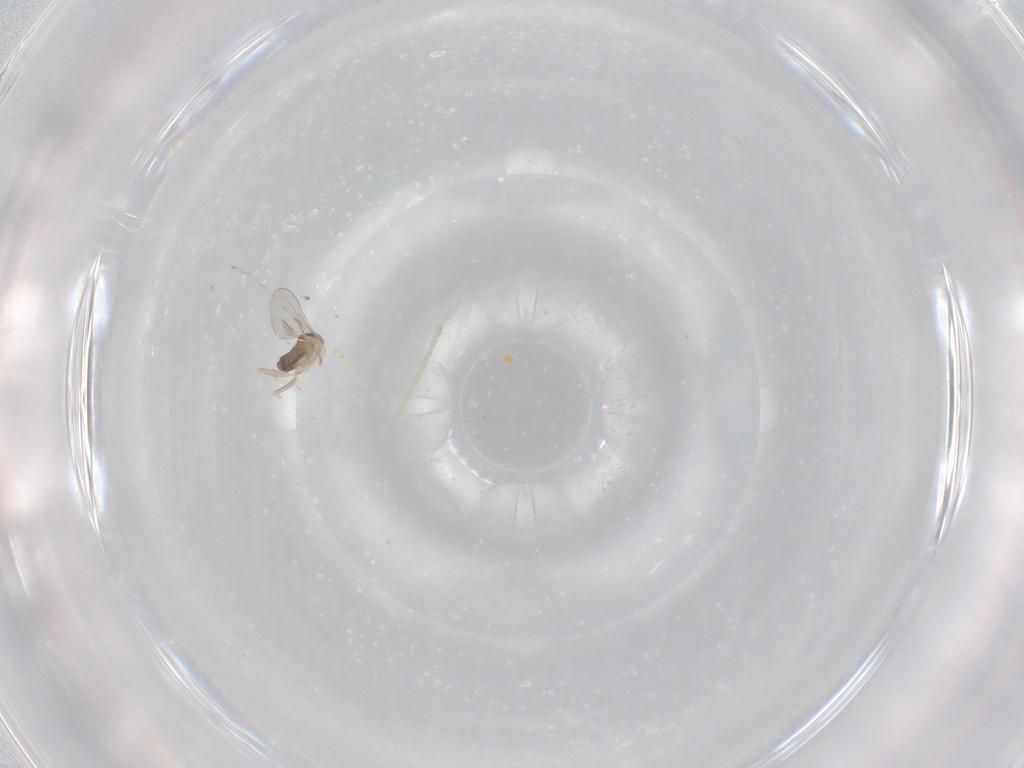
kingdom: Animalia
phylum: Arthropoda
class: Insecta
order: Diptera
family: Cecidomyiidae
